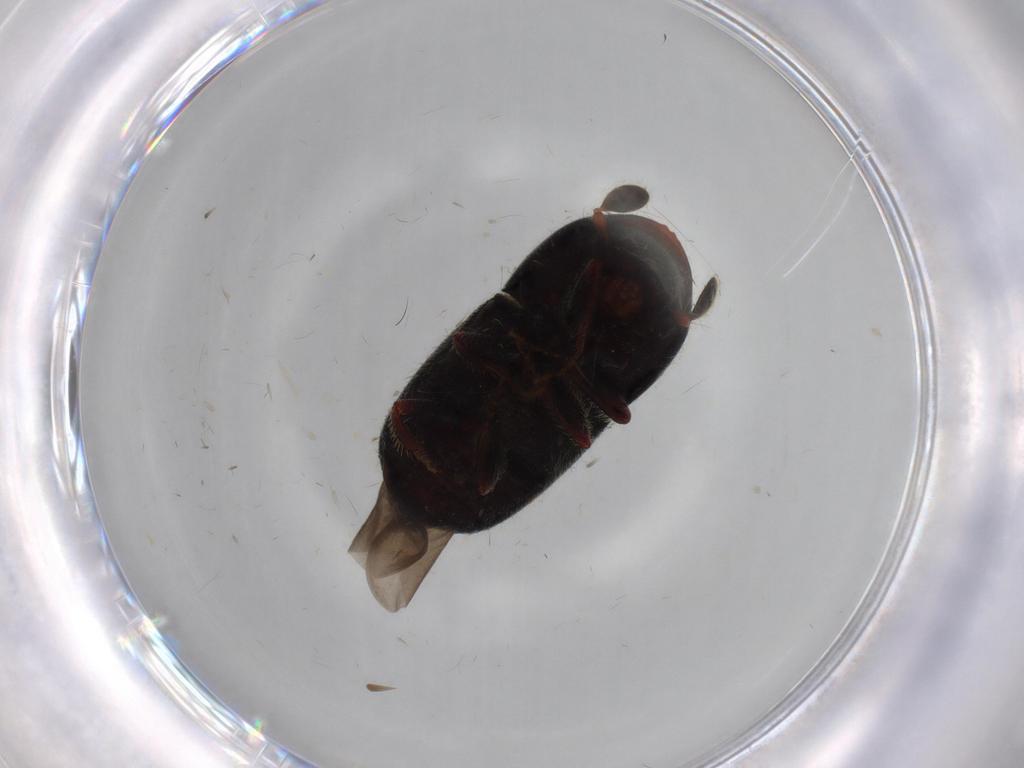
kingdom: Animalia
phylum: Arthropoda
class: Insecta
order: Coleoptera
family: Curculionidae
